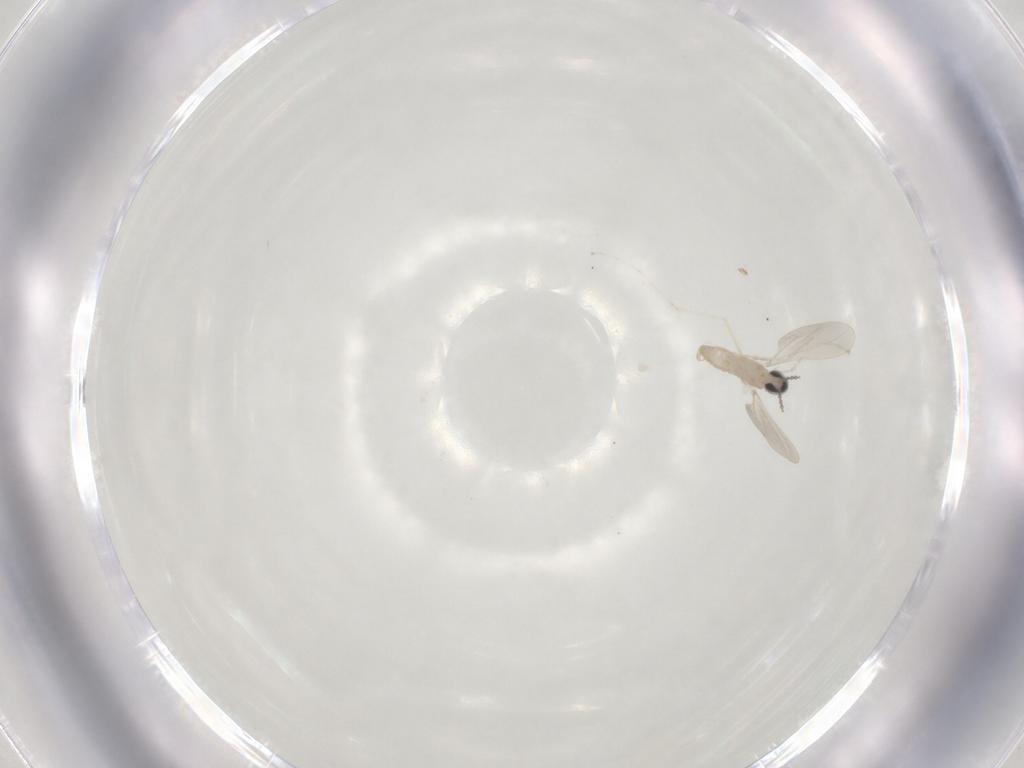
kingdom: Animalia
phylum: Arthropoda
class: Insecta
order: Diptera
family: Cecidomyiidae
